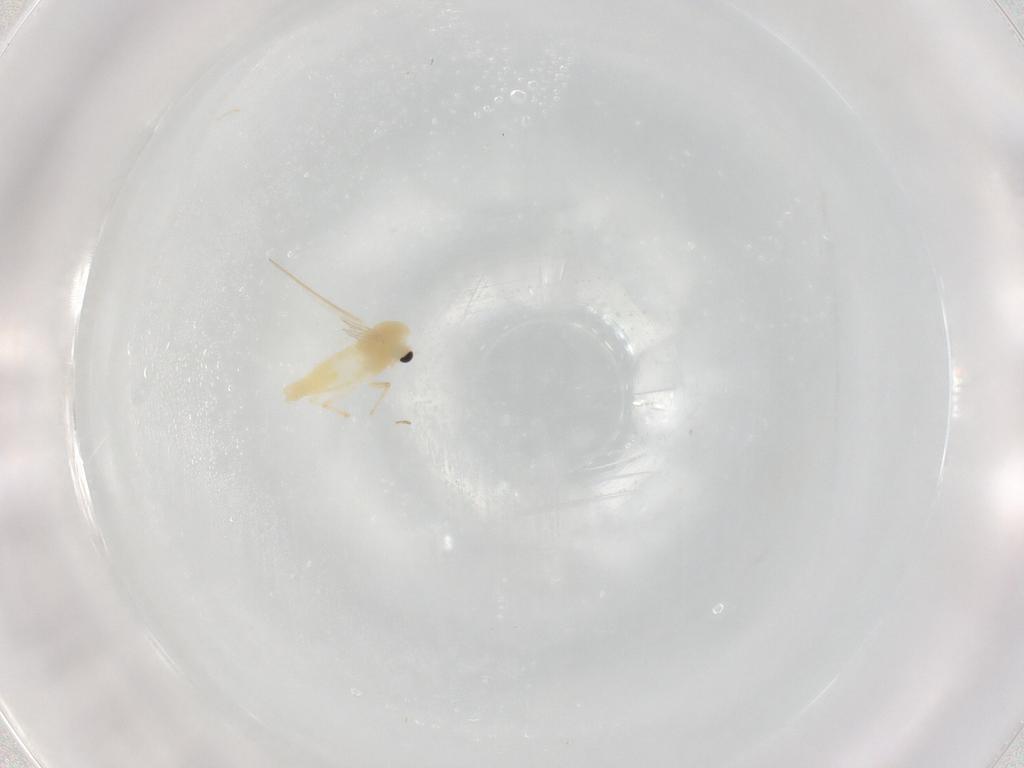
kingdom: Animalia
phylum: Arthropoda
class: Insecta
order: Diptera
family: Chironomidae
